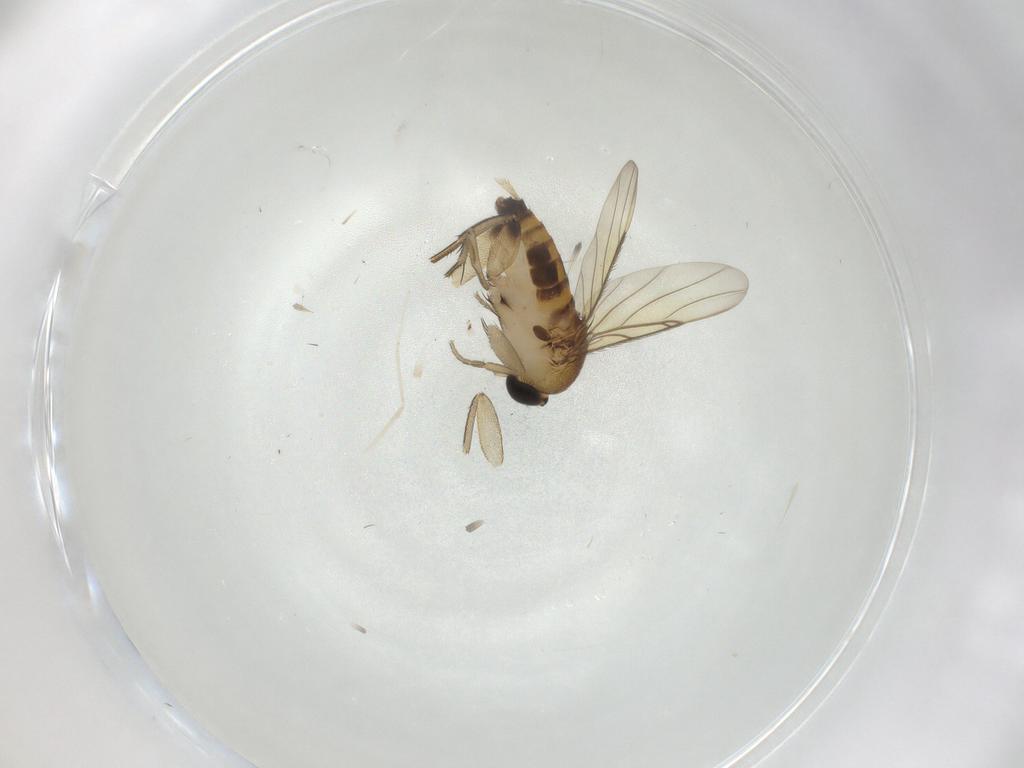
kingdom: Animalia
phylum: Arthropoda
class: Insecta
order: Diptera
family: Phoridae
